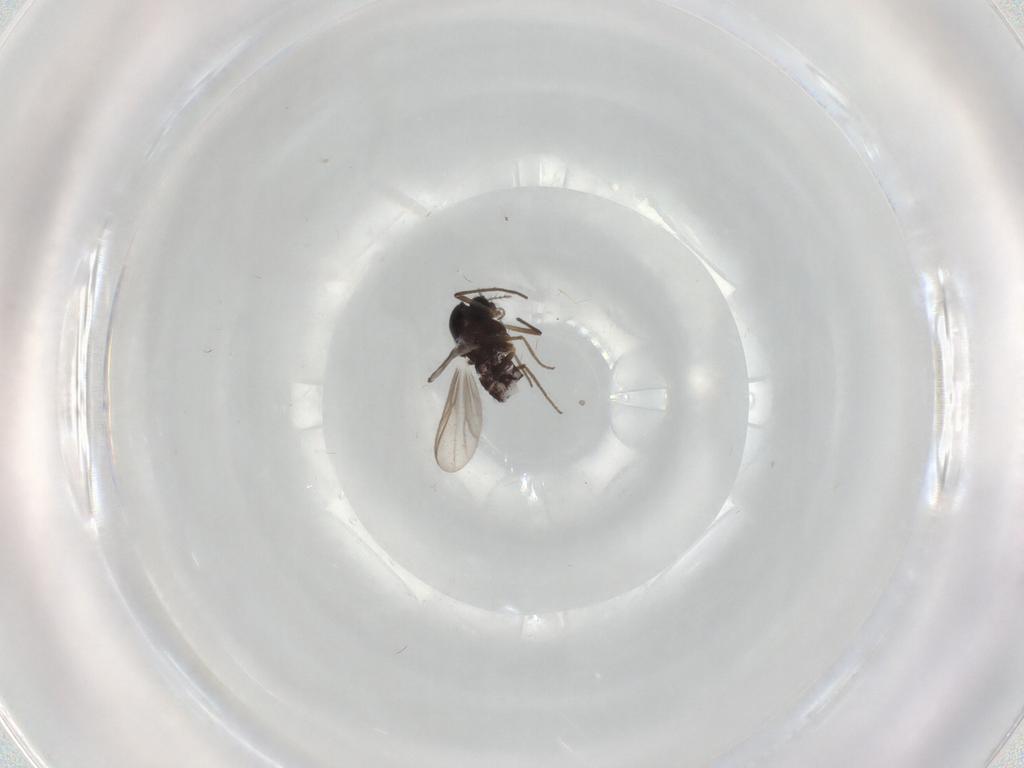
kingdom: Animalia
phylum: Arthropoda
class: Insecta
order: Diptera
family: Chironomidae
